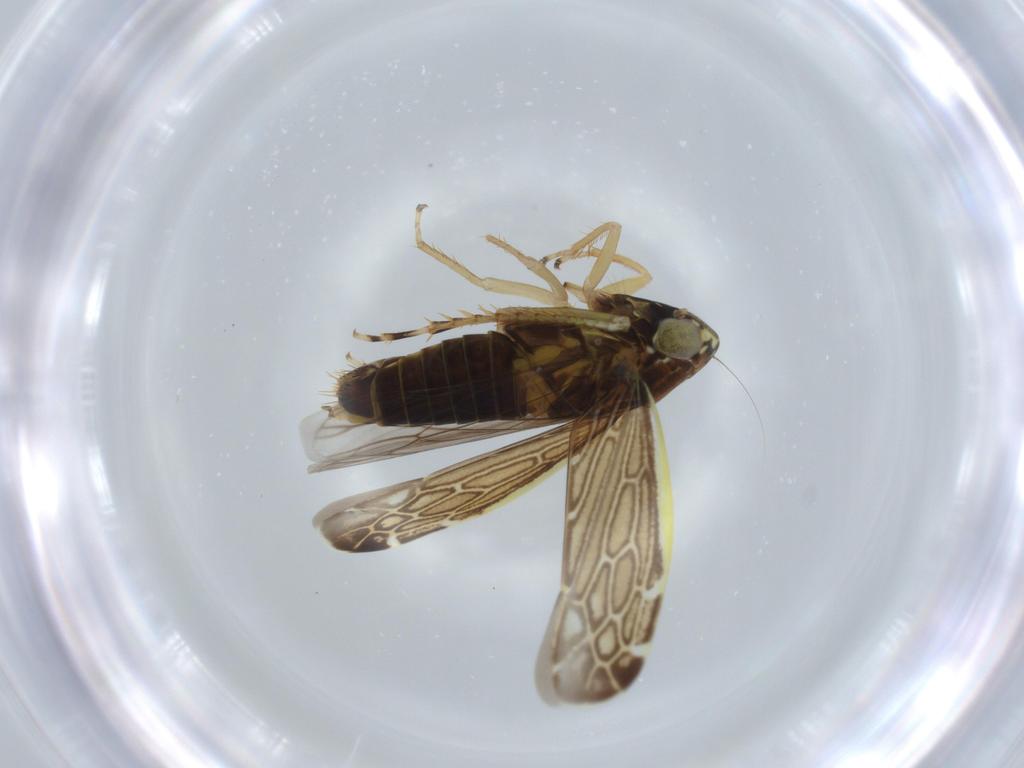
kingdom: Animalia
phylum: Arthropoda
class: Insecta
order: Hemiptera
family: Cicadellidae
